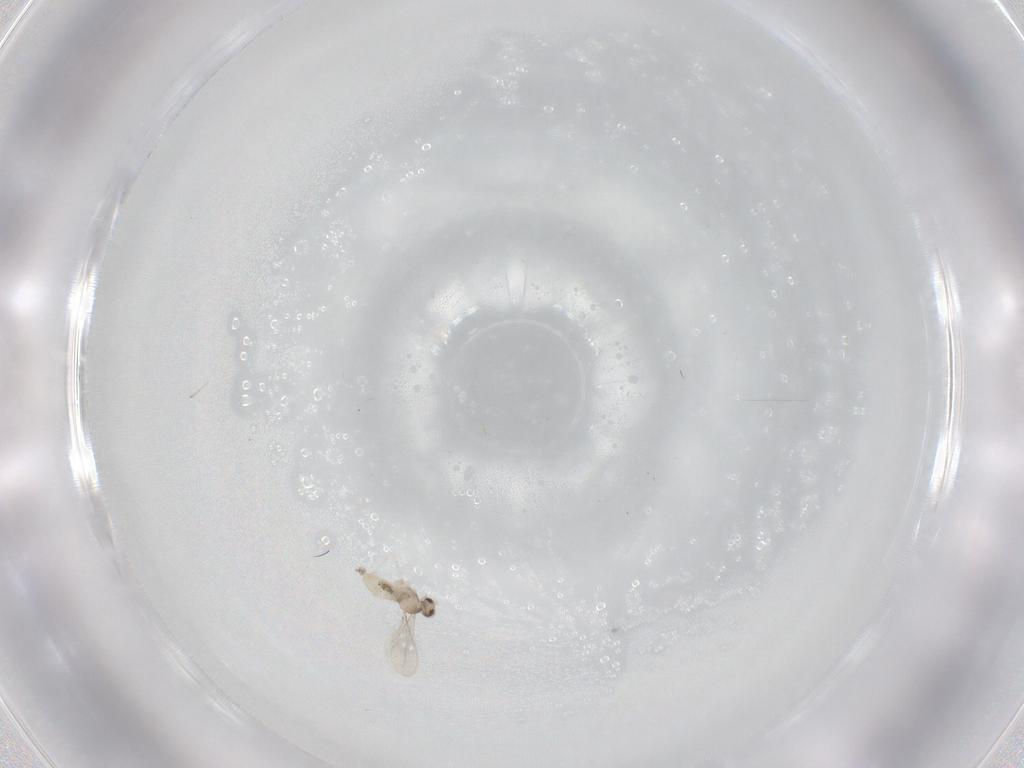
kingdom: Animalia
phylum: Arthropoda
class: Insecta
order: Diptera
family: Cecidomyiidae
